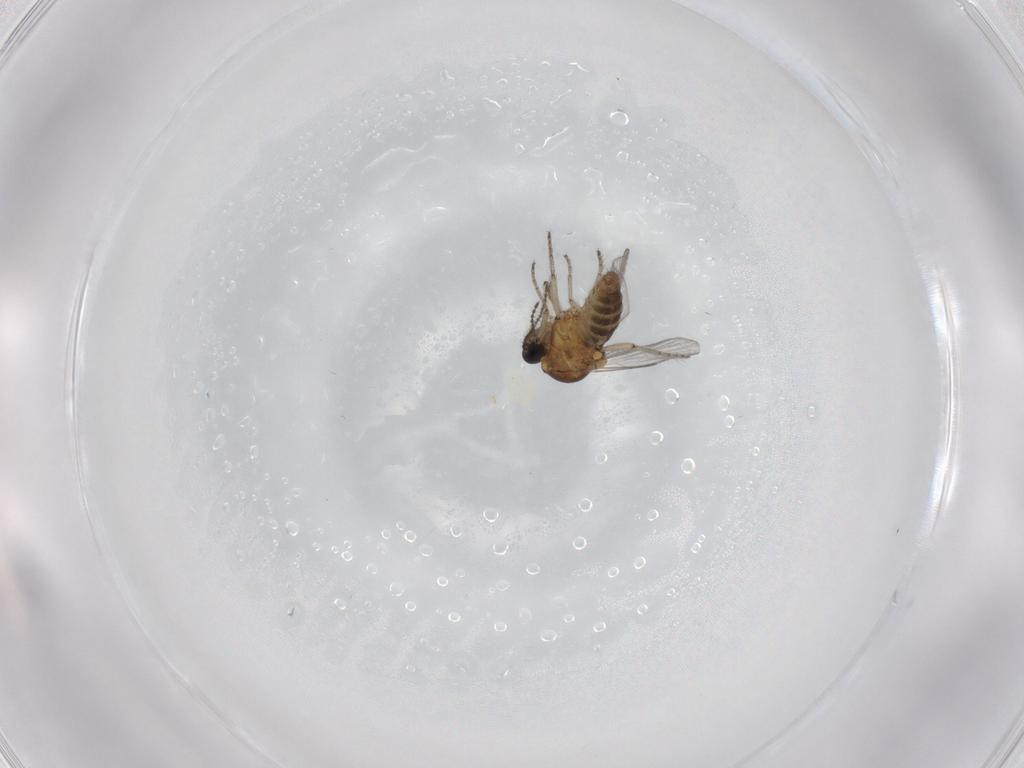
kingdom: Animalia
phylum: Arthropoda
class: Insecta
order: Diptera
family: Ceratopogonidae
